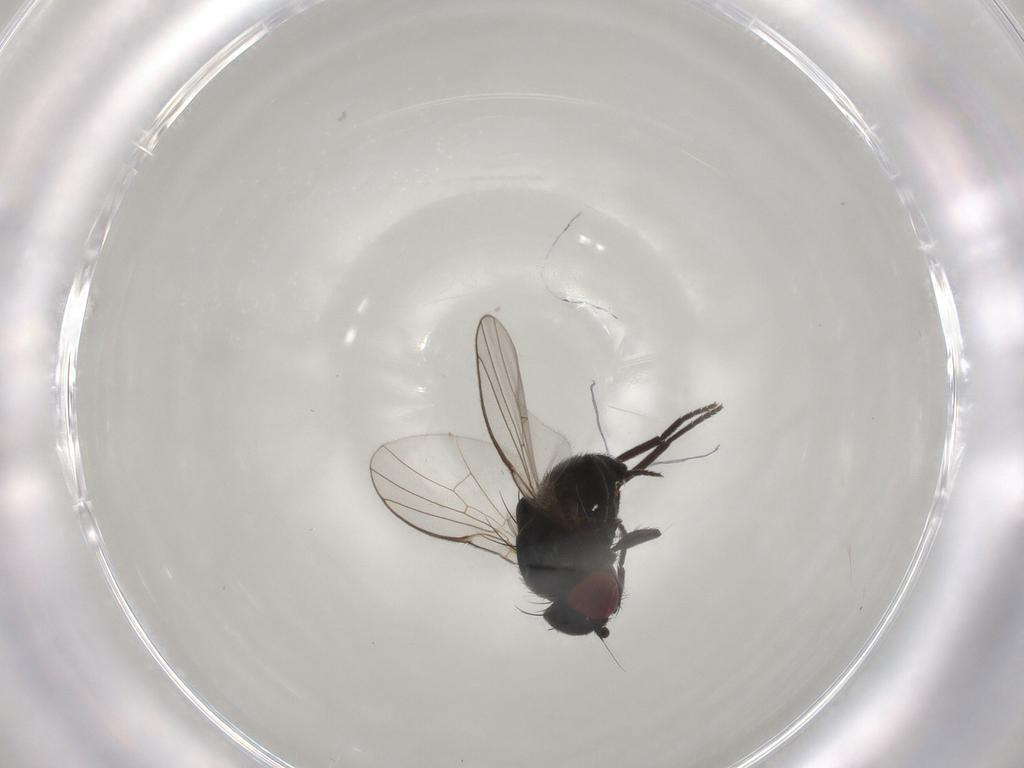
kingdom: Animalia
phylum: Arthropoda
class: Insecta
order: Diptera
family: Agromyzidae
